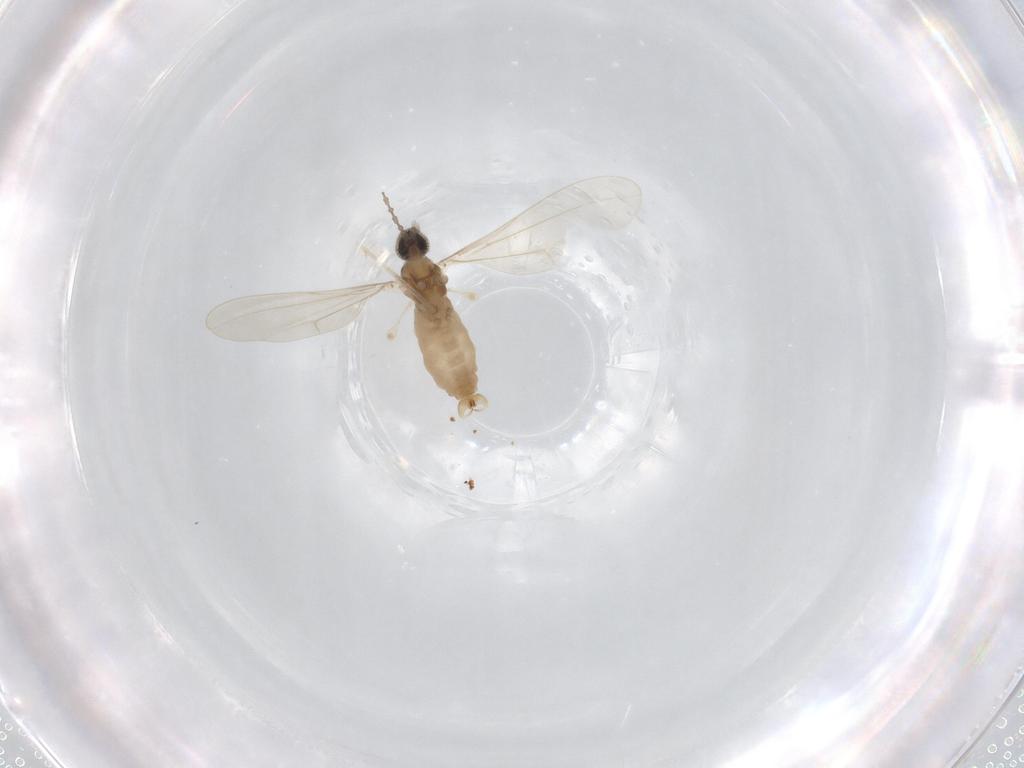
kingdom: Animalia
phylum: Arthropoda
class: Insecta
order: Diptera
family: Cecidomyiidae
